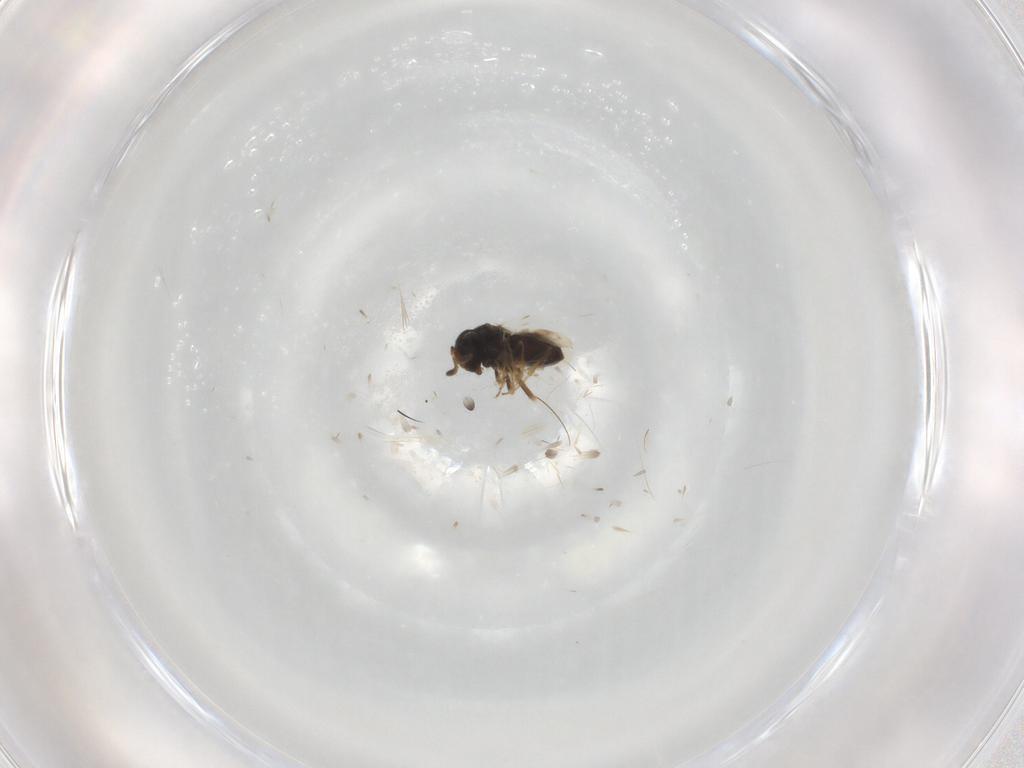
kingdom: Animalia
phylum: Arthropoda
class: Insecta
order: Hymenoptera
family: Scelionidae
